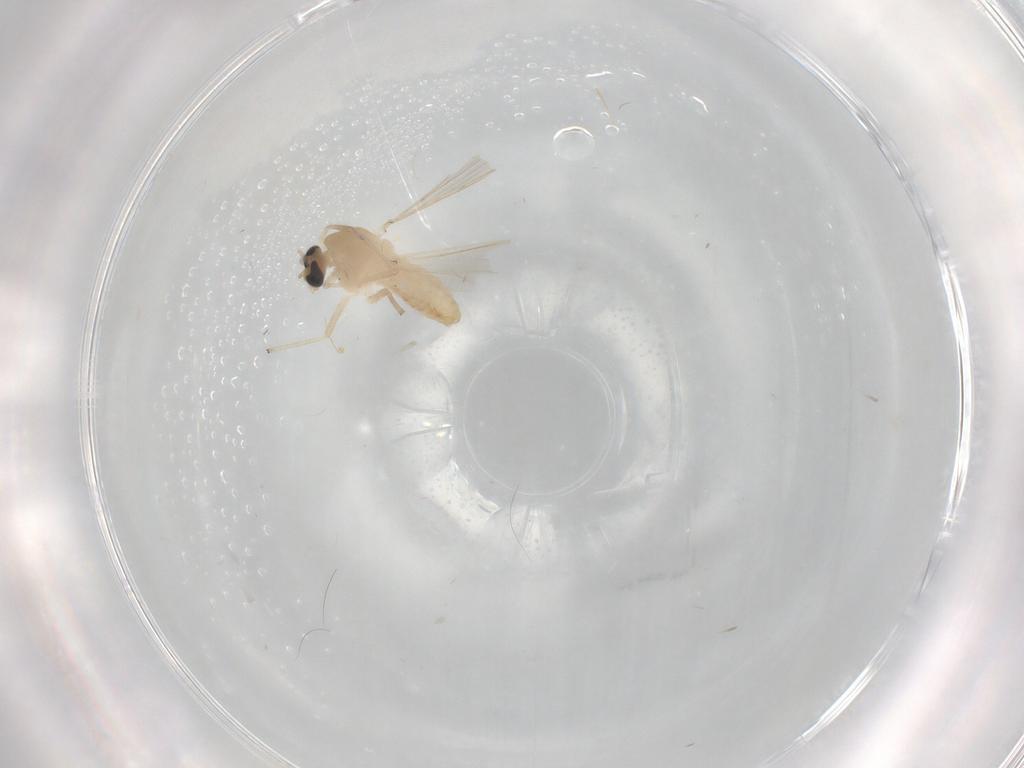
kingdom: Animalia
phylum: Arthropoda
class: Insecta
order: Diptera
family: Chironomidae
